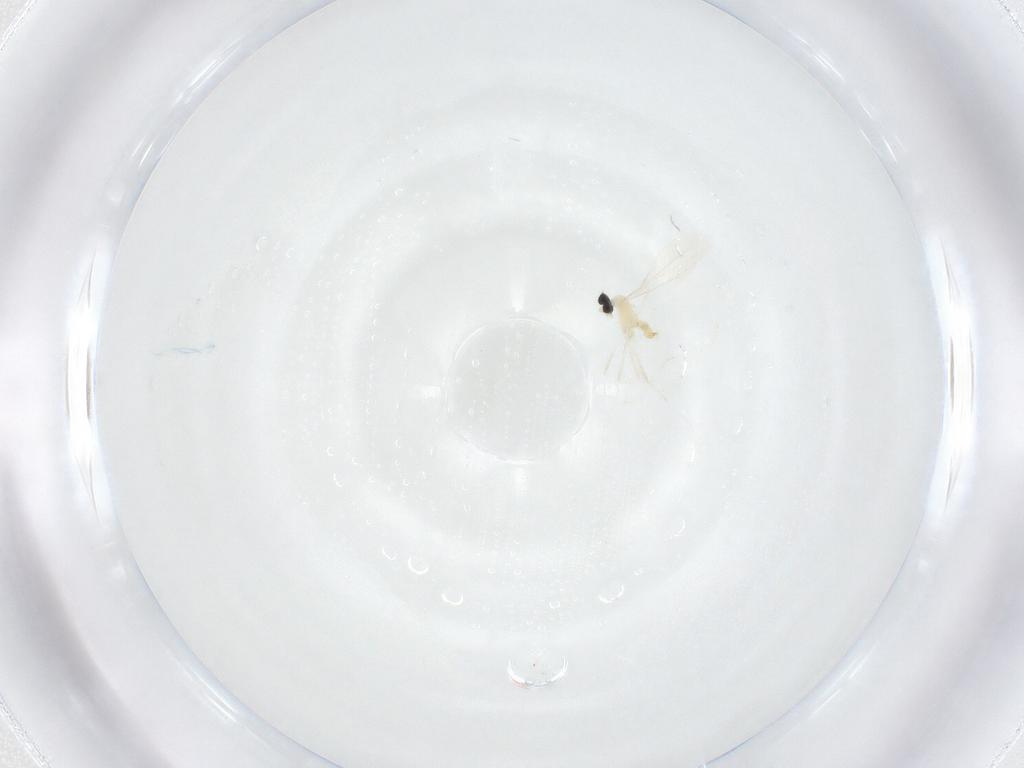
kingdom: Animalia
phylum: Arthropoda
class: Insecta
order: Diptera
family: Cecidomyiidae
